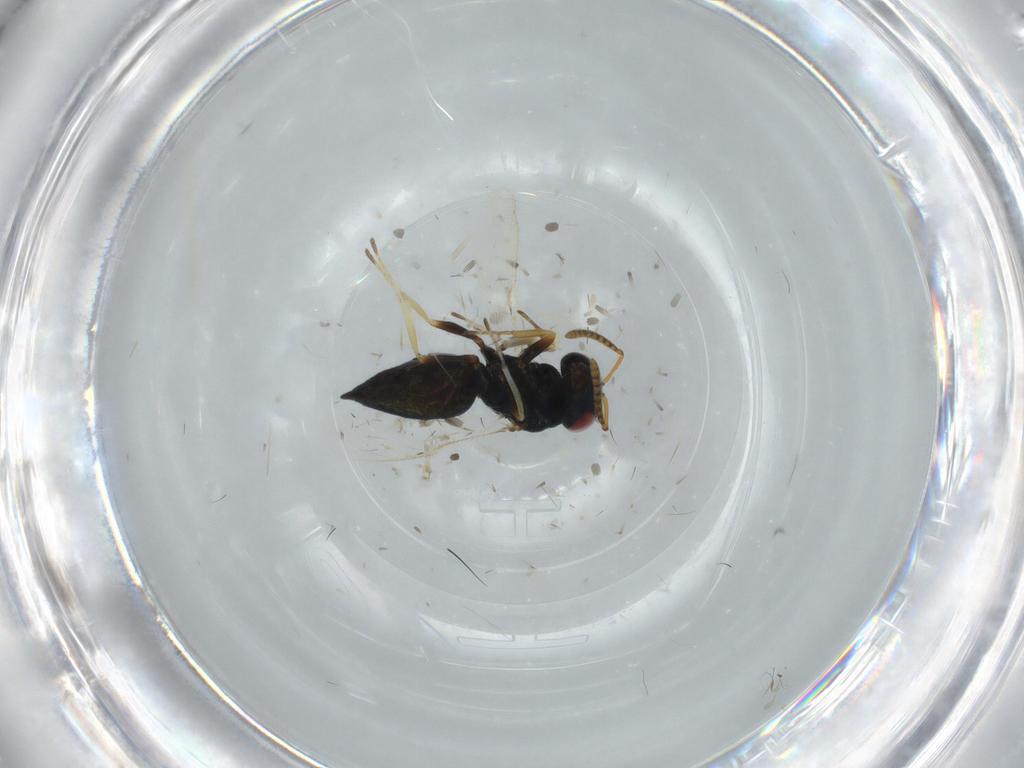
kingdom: Animalia
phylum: Arthropoda
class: Insecta
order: Hymenoptera
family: Pteromalidae
